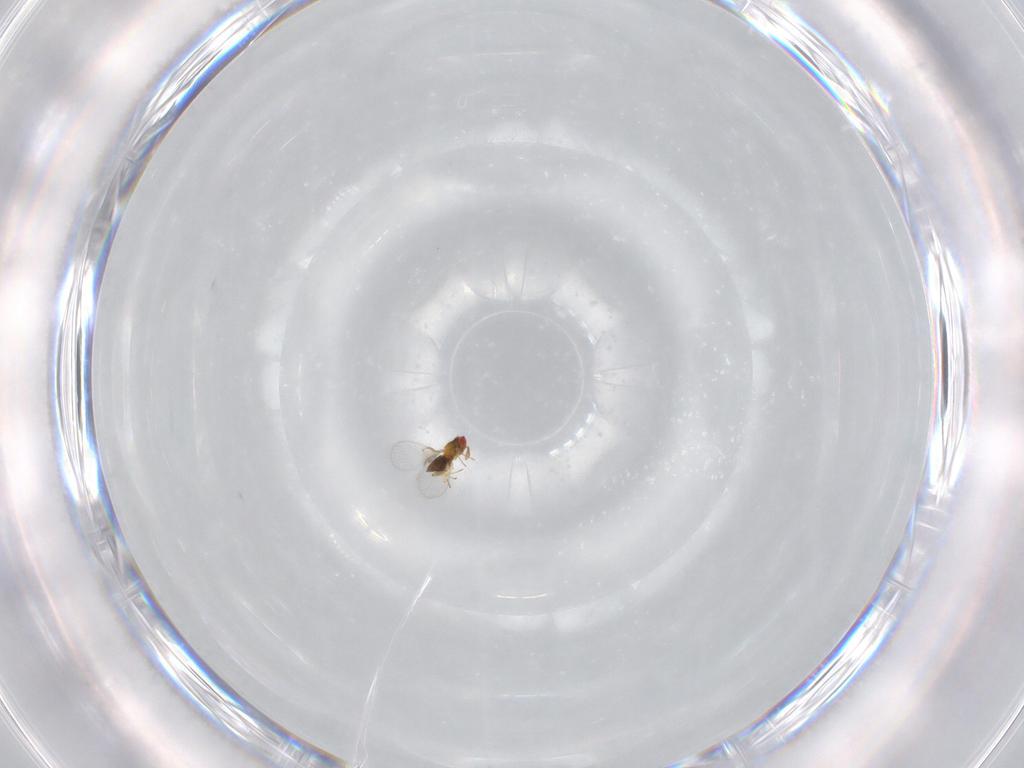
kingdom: Animalia
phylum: Arthropoda
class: Insecta
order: Hymenoptera
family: Trichogrammatidae
